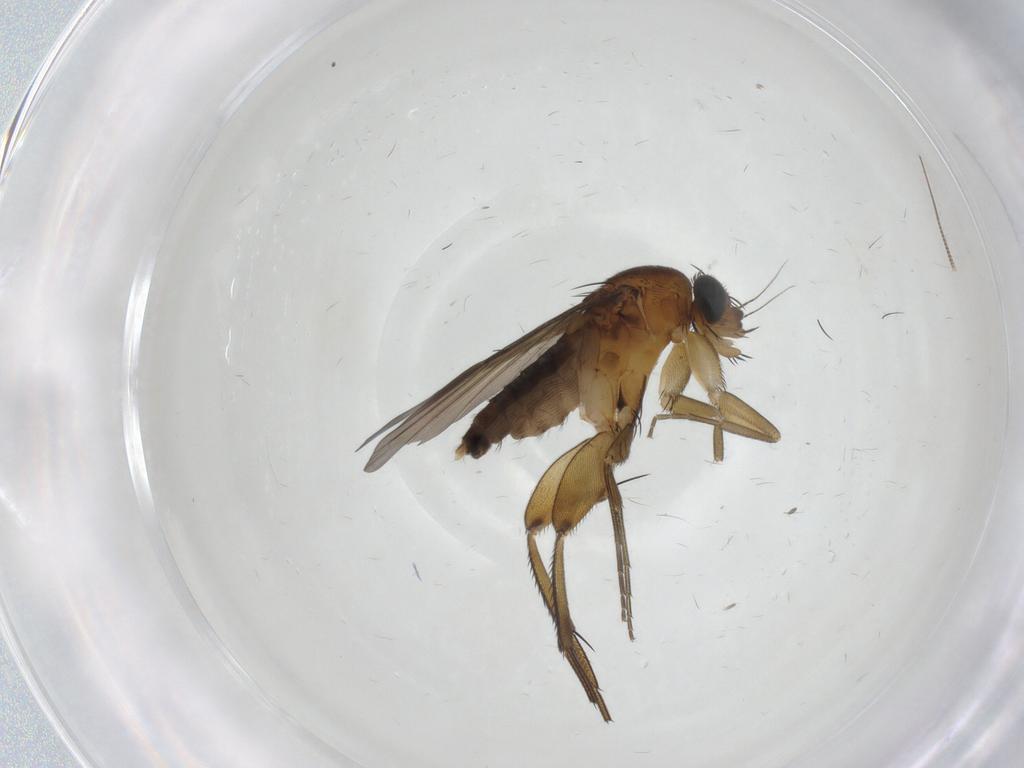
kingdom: Animalia
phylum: Arthropoda
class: Insecta
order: Diptera
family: Phoridae
